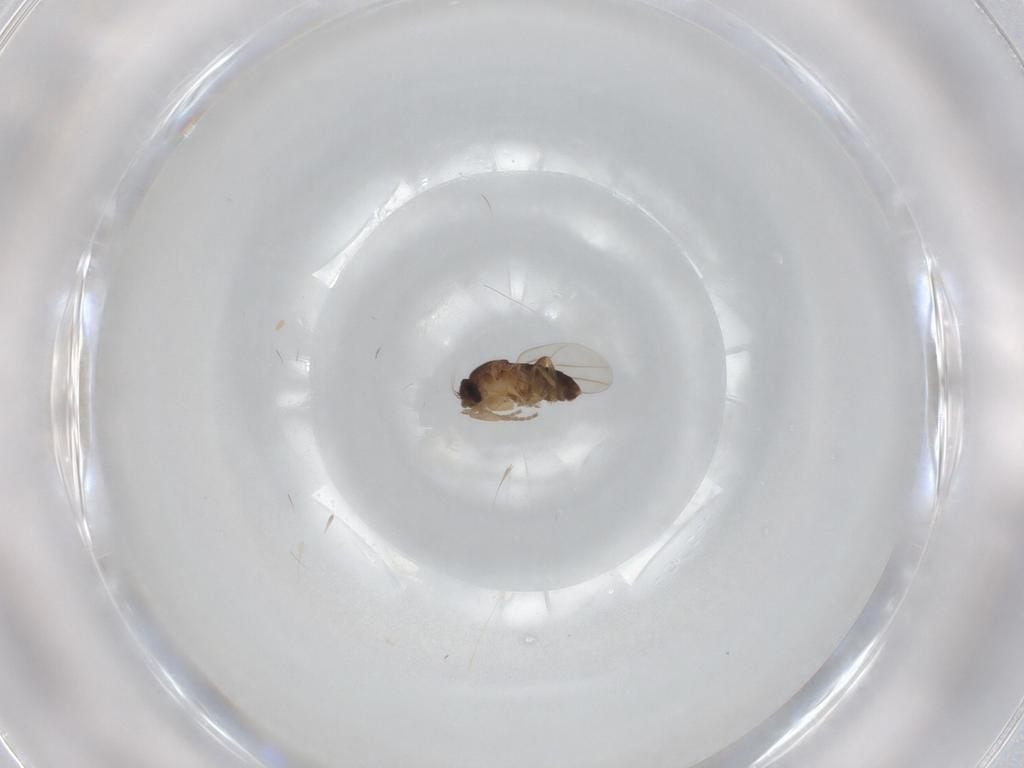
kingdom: Animalia
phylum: Arthropoda
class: Insecta
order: Diptera
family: Phoridae
